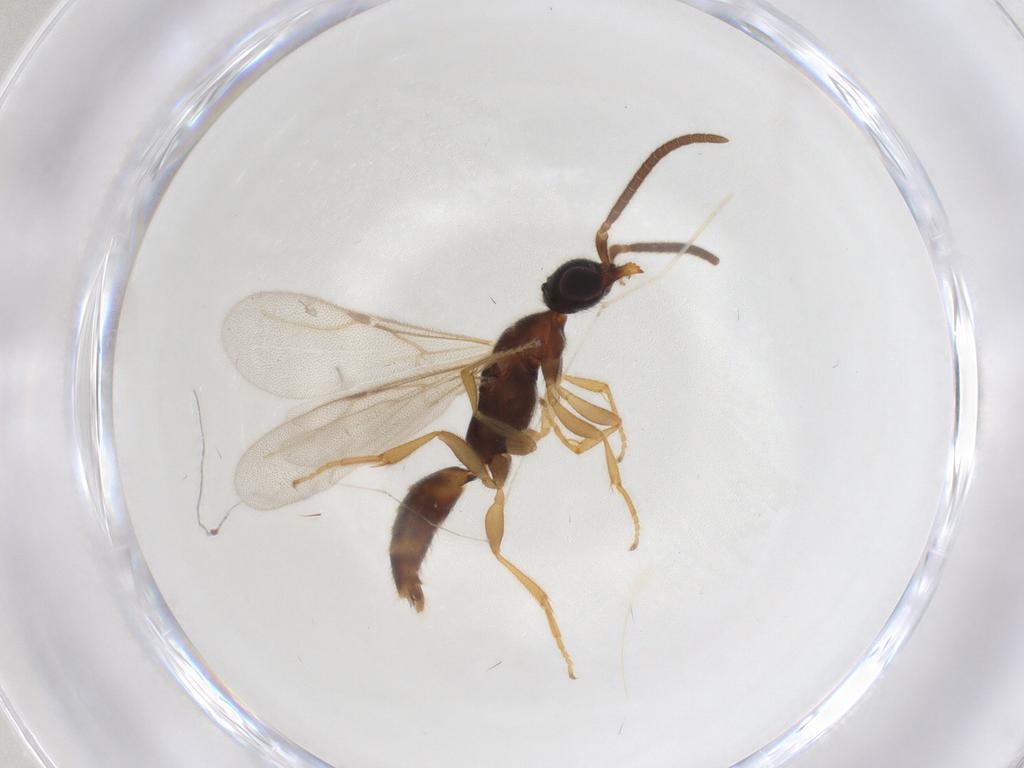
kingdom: Animalia
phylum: Arthropoda
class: Insecta
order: Hymenoptera
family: Bethylidae
